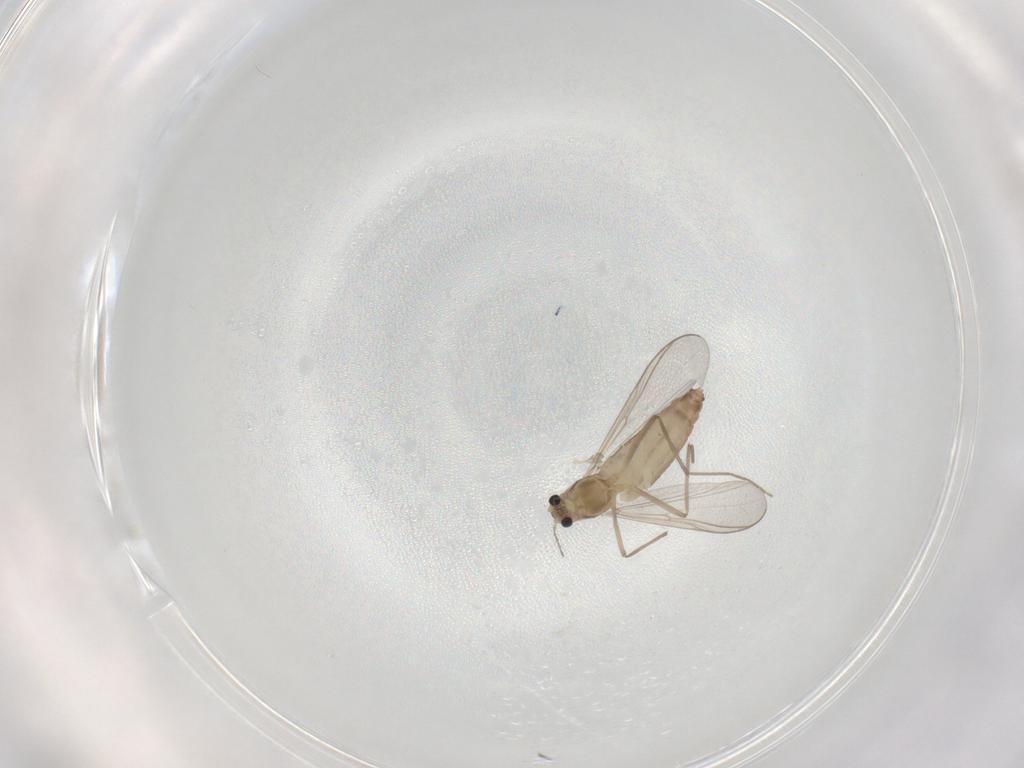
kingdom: Animalia
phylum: Arthropoda
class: Insecta
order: Diptera
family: Chironomidae
